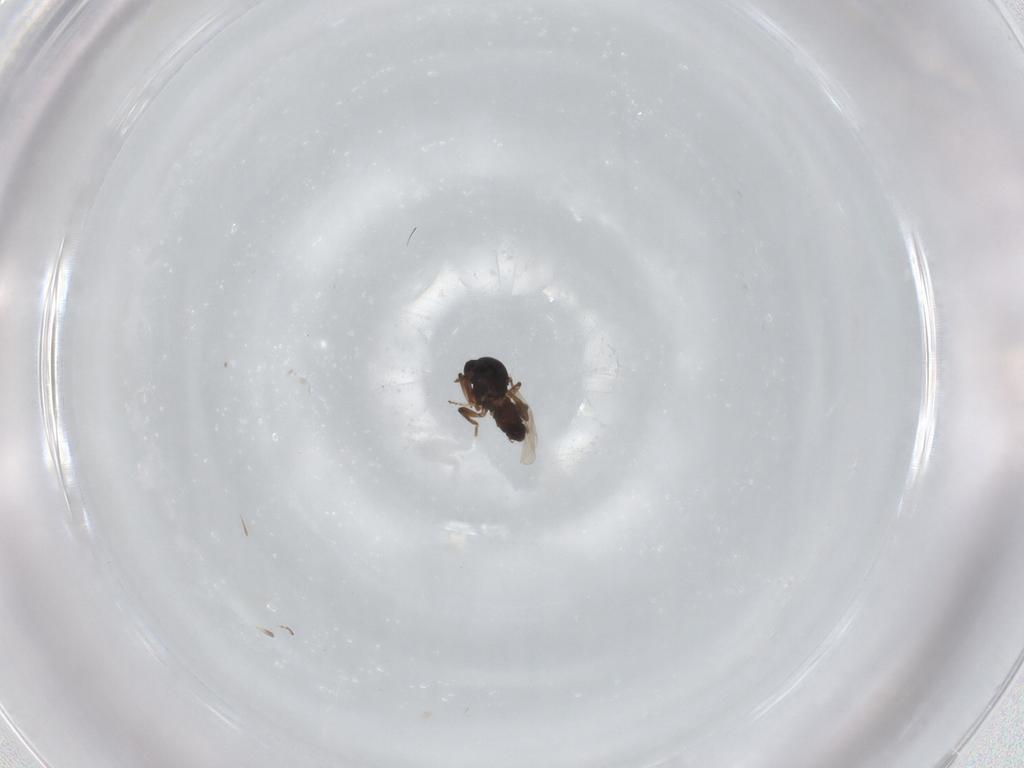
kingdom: Animalia
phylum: Arthropoda
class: Insecta
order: Diptera
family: Ceratopogonidae
